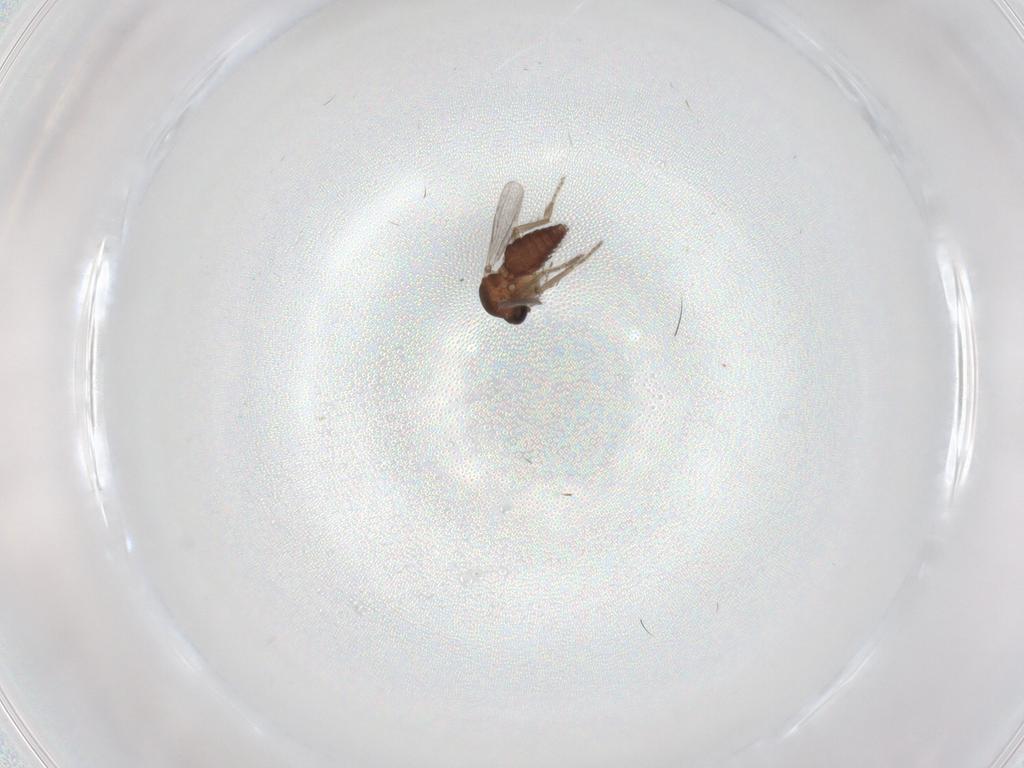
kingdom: Animalia
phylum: Arthropoda
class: Insecta
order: Diptera
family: Ceratopogonidae
